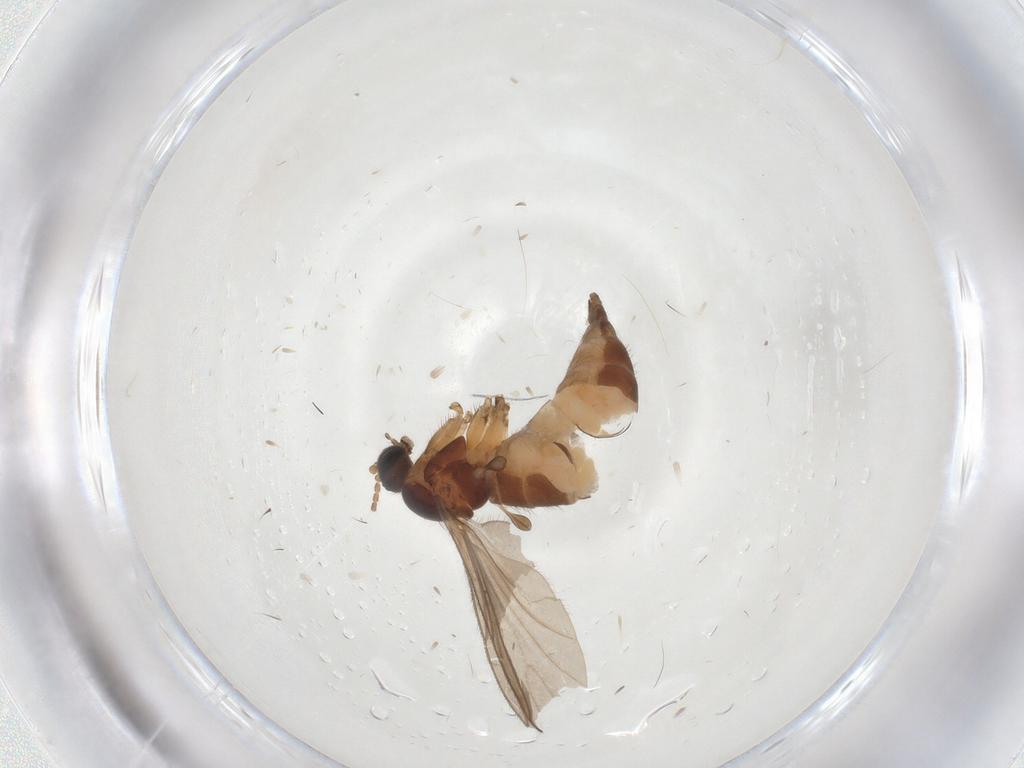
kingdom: Animalia
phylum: Arthropoda
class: Insecta
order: Diptera
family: Sciaridae
